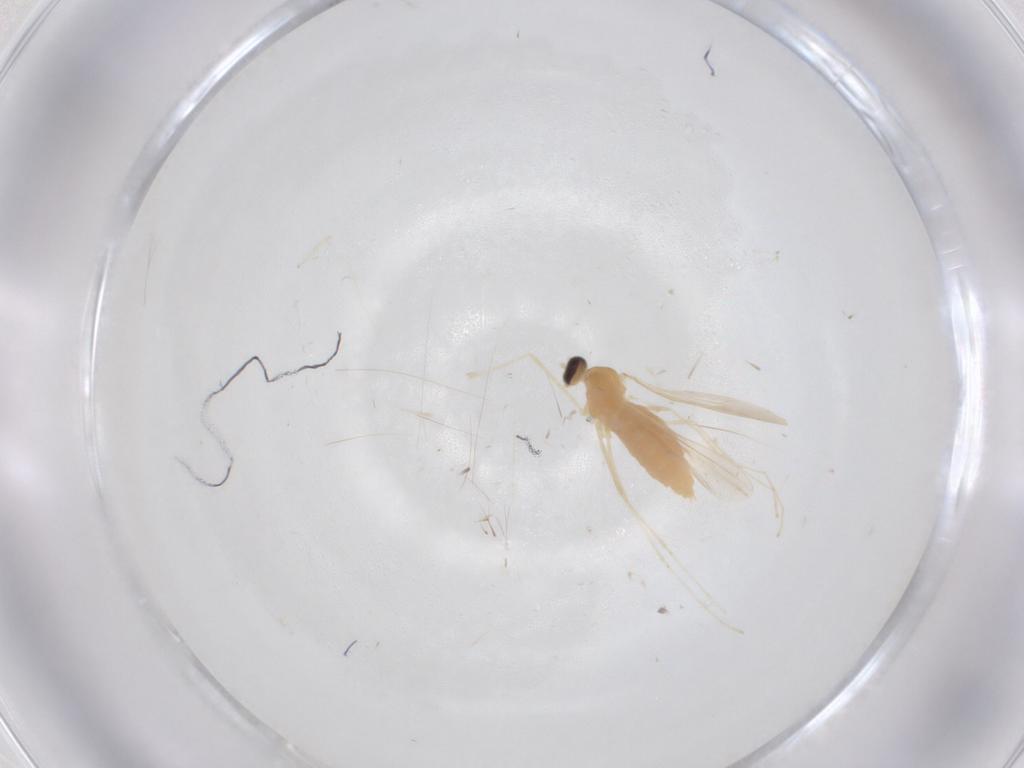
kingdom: Animalia
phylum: Arthropoda
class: Insecta
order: Diptera
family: Cecidomyiidae
